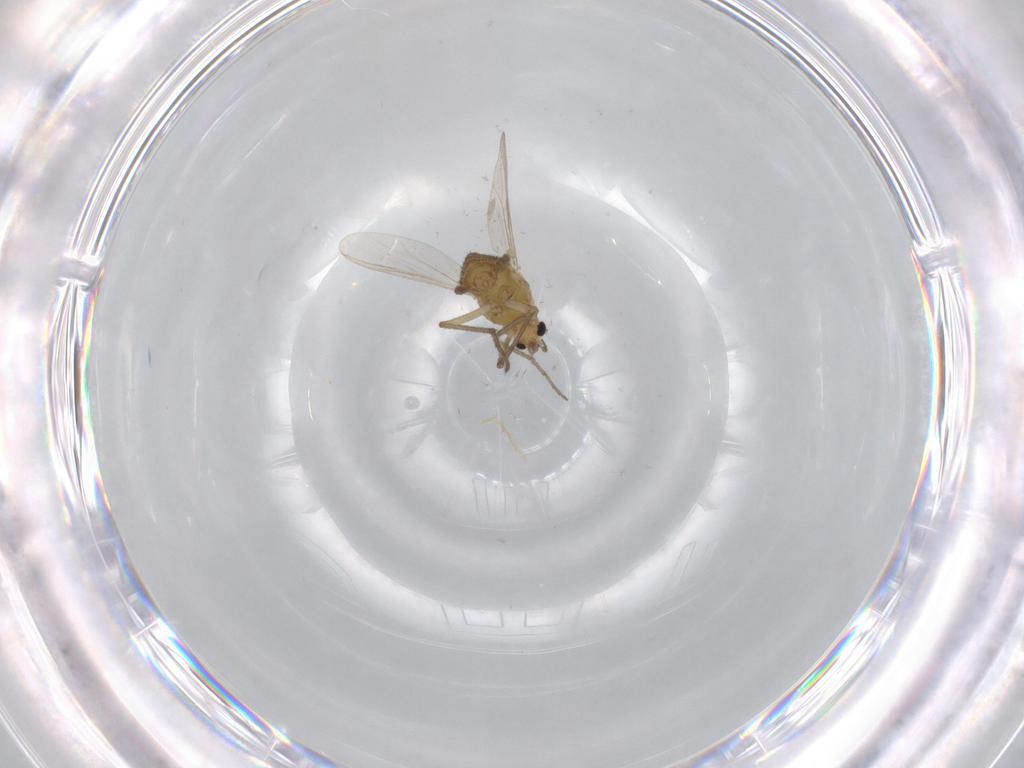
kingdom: Animalia
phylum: Arthropoda
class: Insecta
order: Diptera
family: Chironomidae
